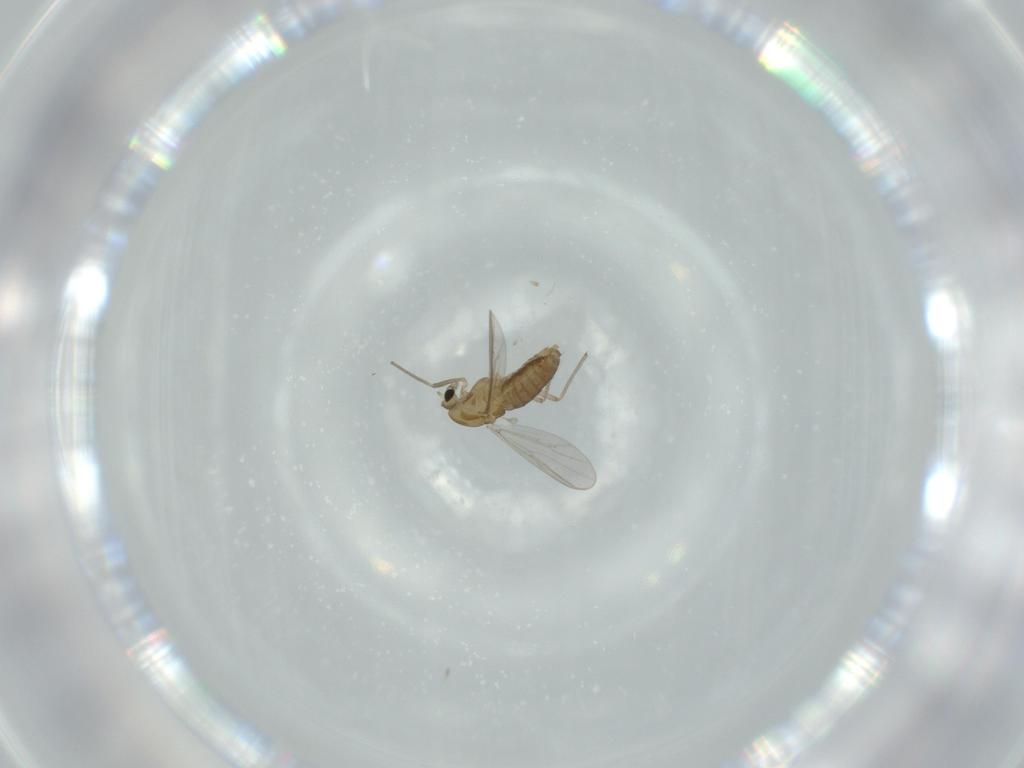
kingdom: Animalia
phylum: Arthropoda
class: Insecta
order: Diptera
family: Chironomidae
